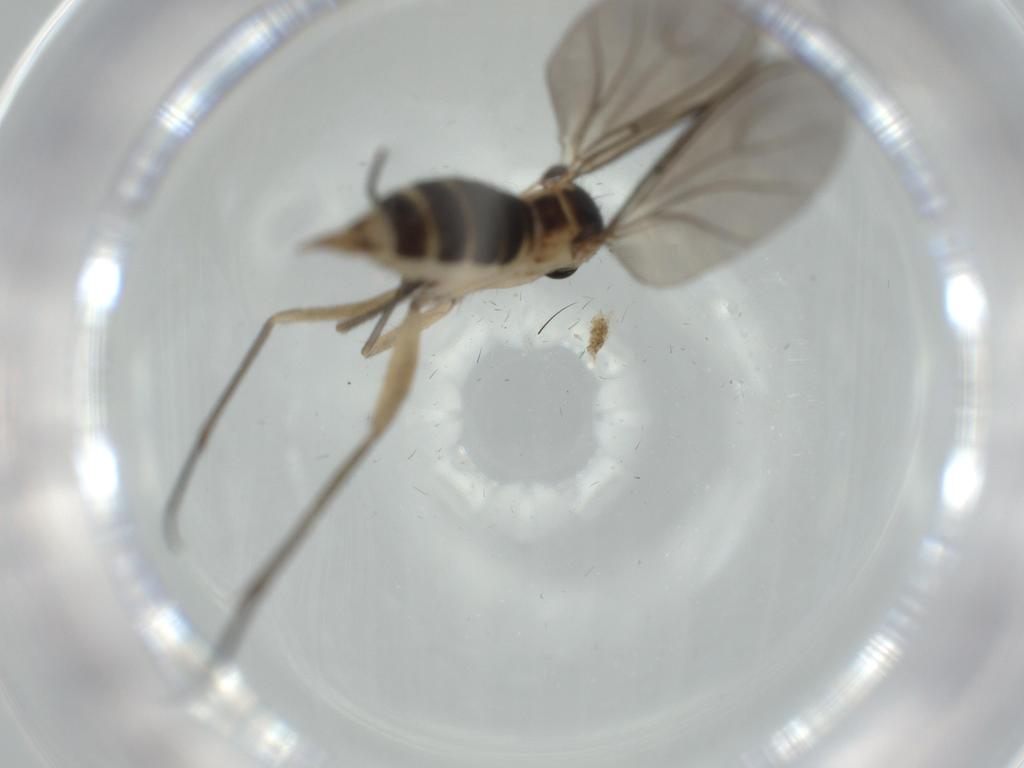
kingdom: Animalia
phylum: Arthropoda
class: Insecta
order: Diptera
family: Sciaridae
